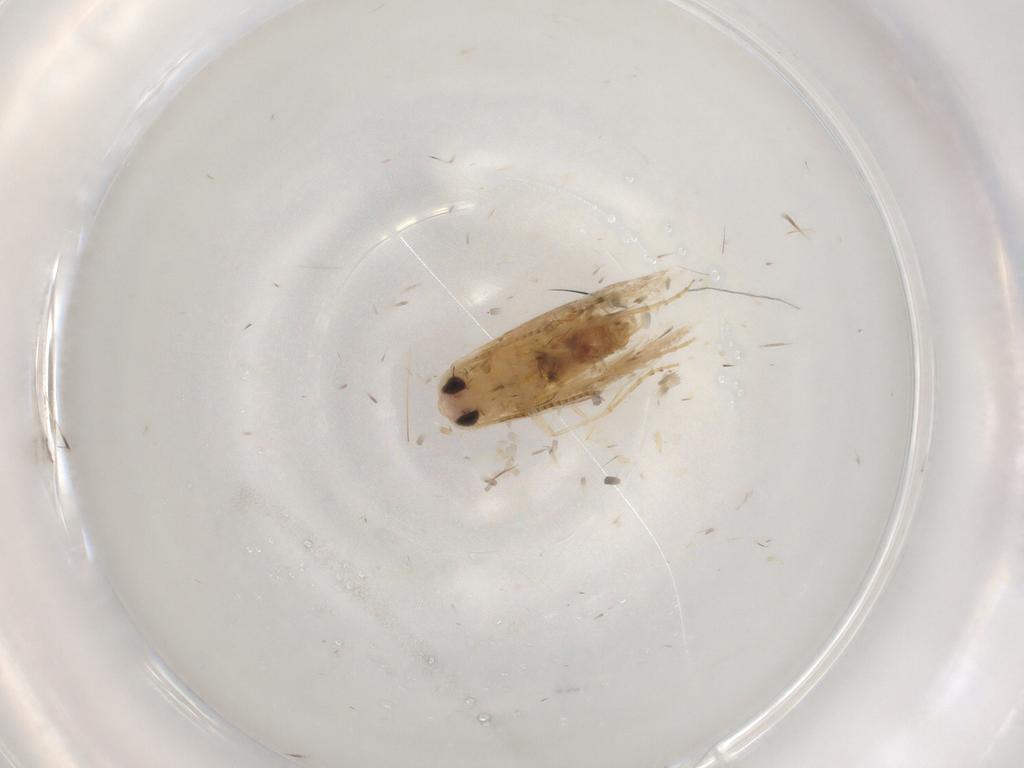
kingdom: Animalia
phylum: Arthropoda
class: Insecta
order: Lepidoptera
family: Bucculatricidae
